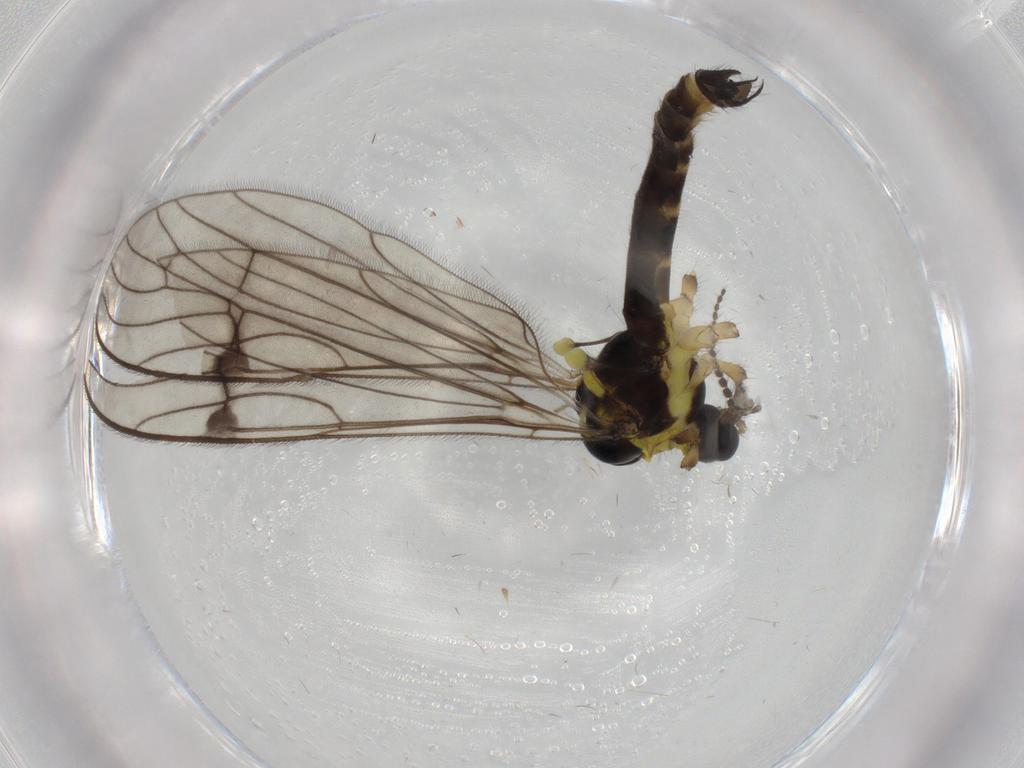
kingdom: Animalia
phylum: Arthropoda
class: Insecta
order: Diptera
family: Limoniidae
